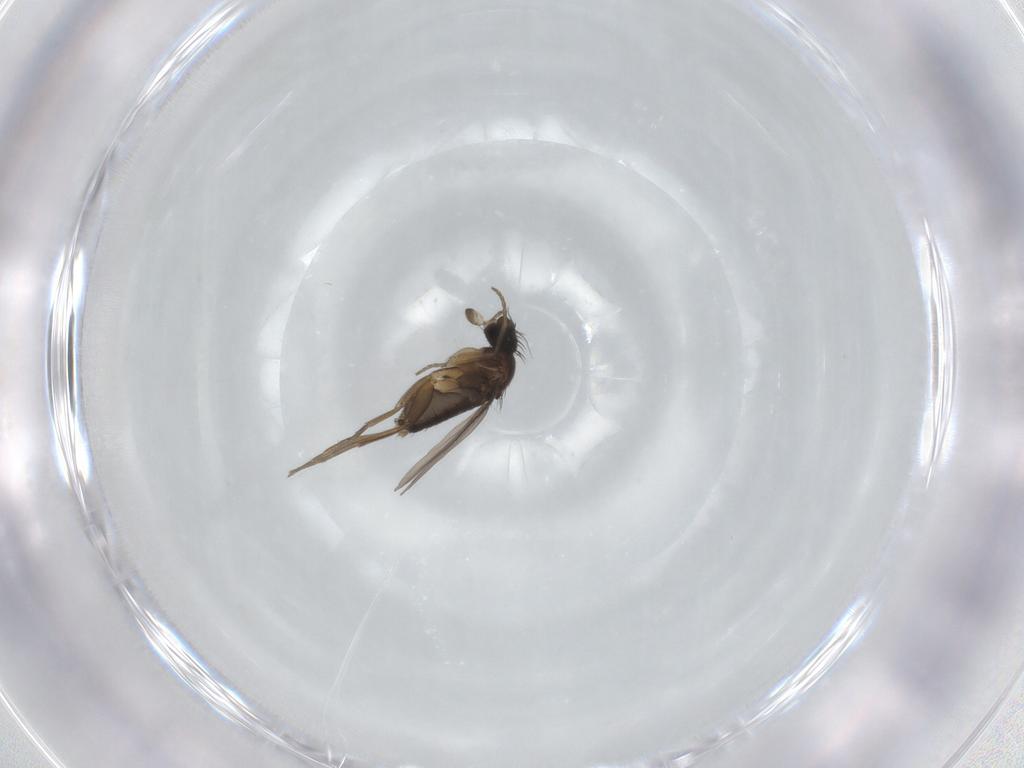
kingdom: Animalia
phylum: Arthropoda
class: Insecta
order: Diptera
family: Phoridae
